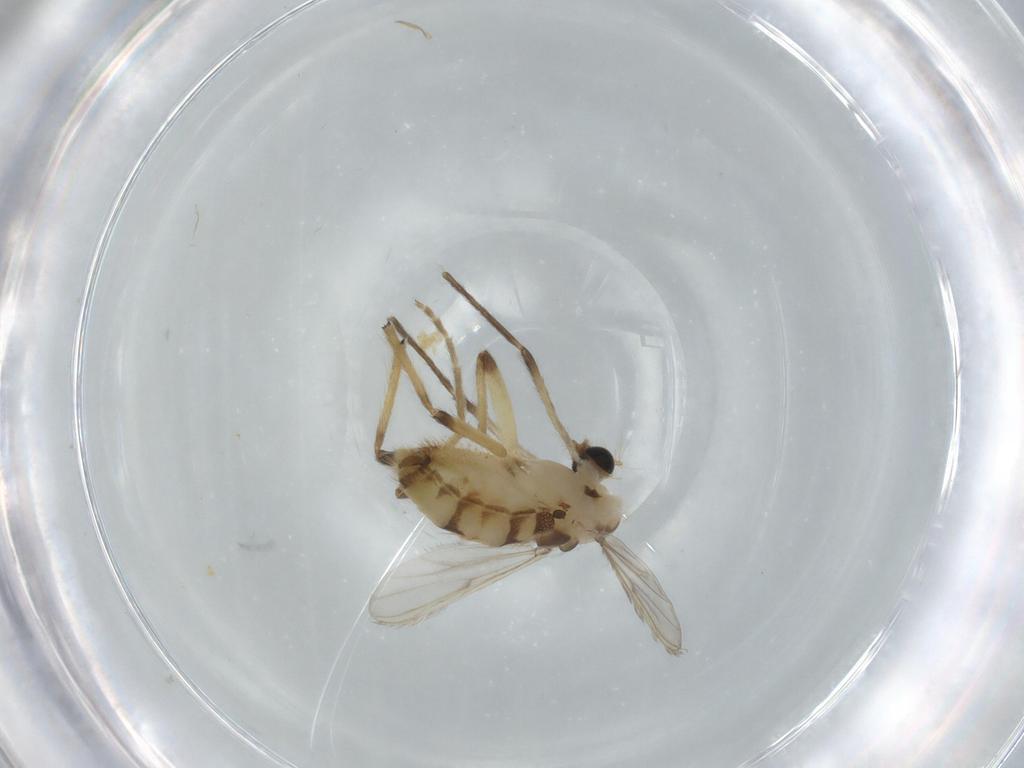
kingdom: Animalia
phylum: Arthropoda
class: Insecta
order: Diptera
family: Chironomidae
